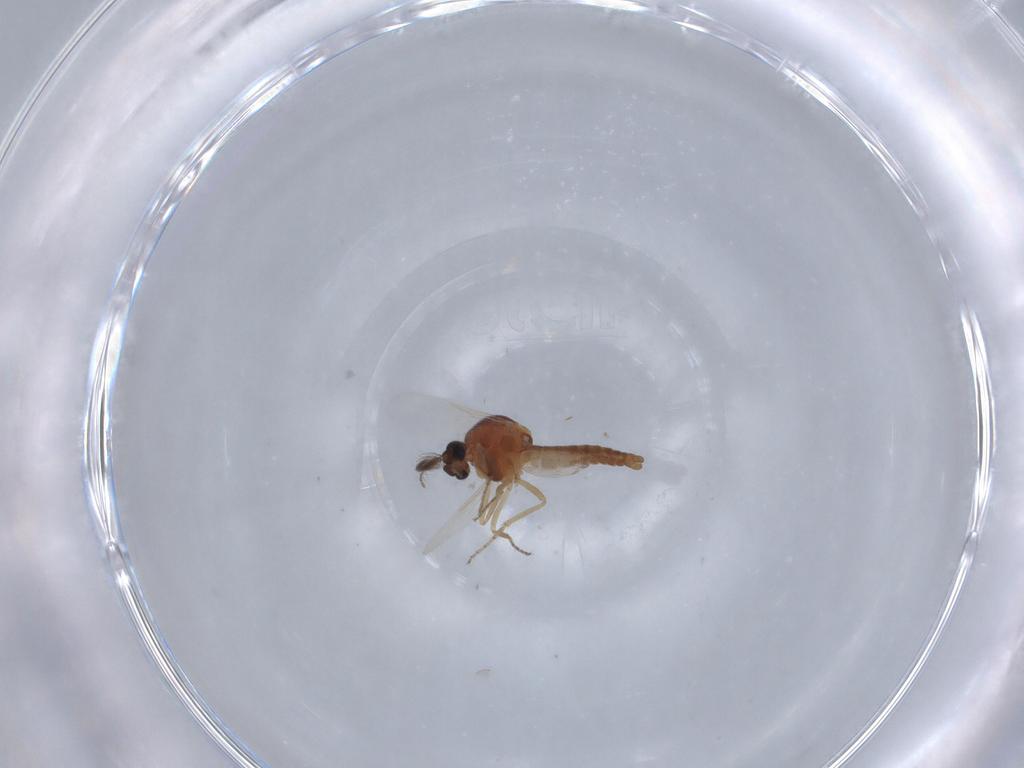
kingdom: Animalia
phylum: Arthropoda
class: Insecta
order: Diptera
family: Ceratopogonidae
